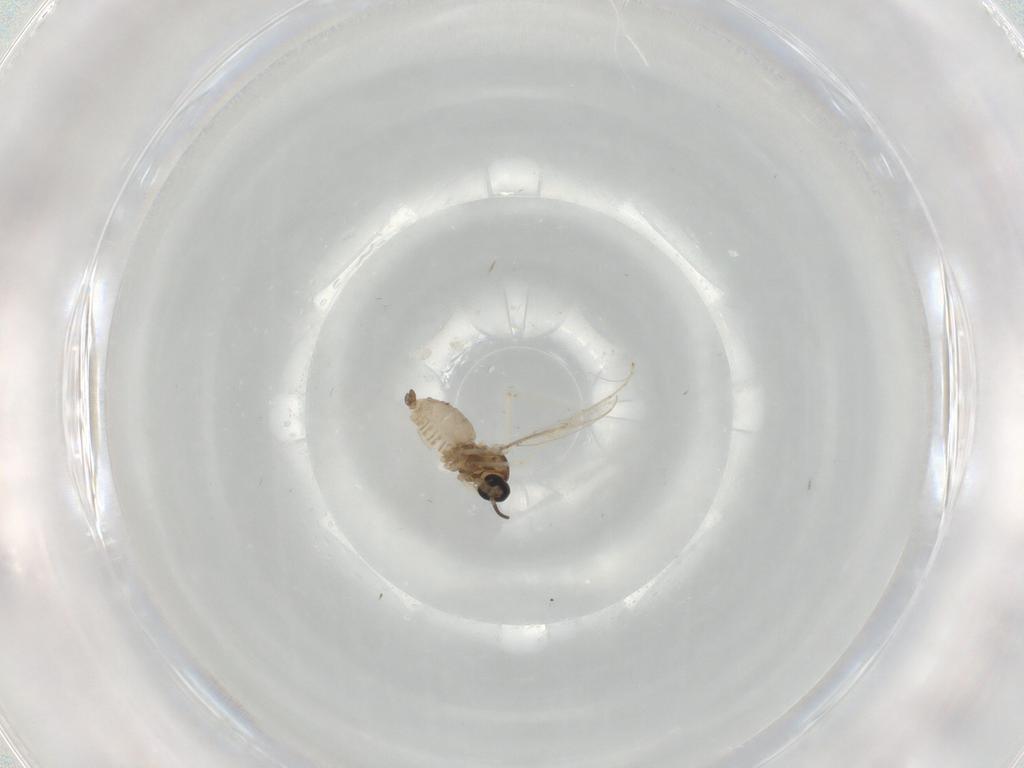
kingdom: Animalia
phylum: Arthropoda
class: Insecta
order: Diptera
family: Cecidomyiidae
